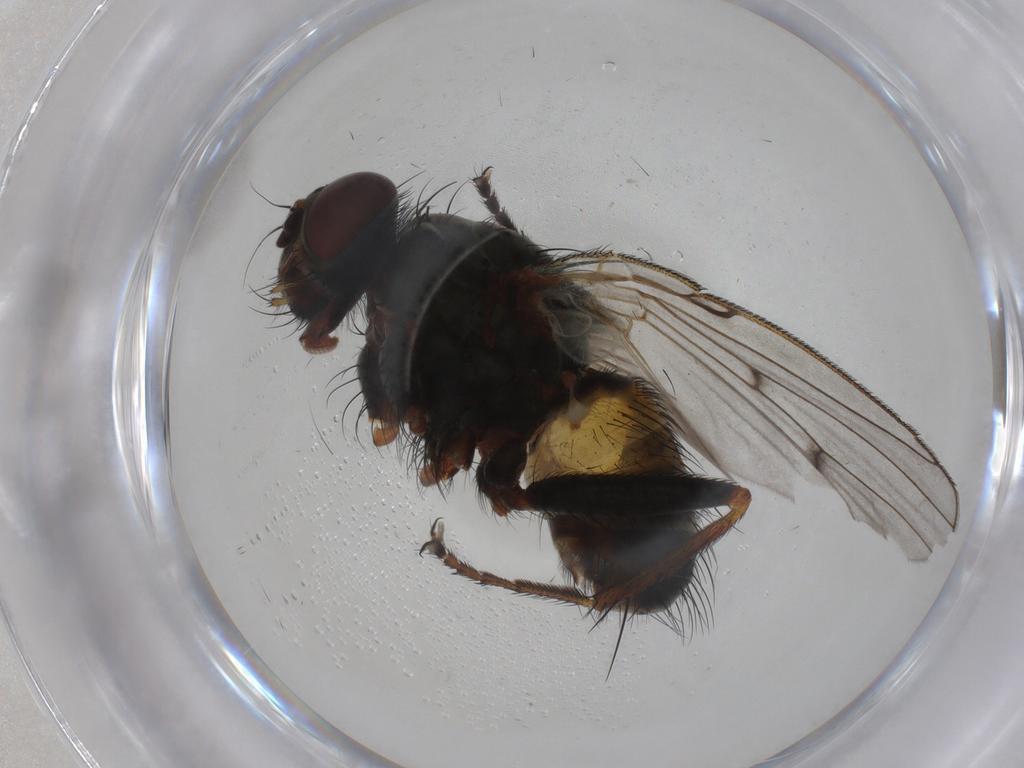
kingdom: Animalia
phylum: Arthropoda
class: Insecta
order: Diptera
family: Muscidae
